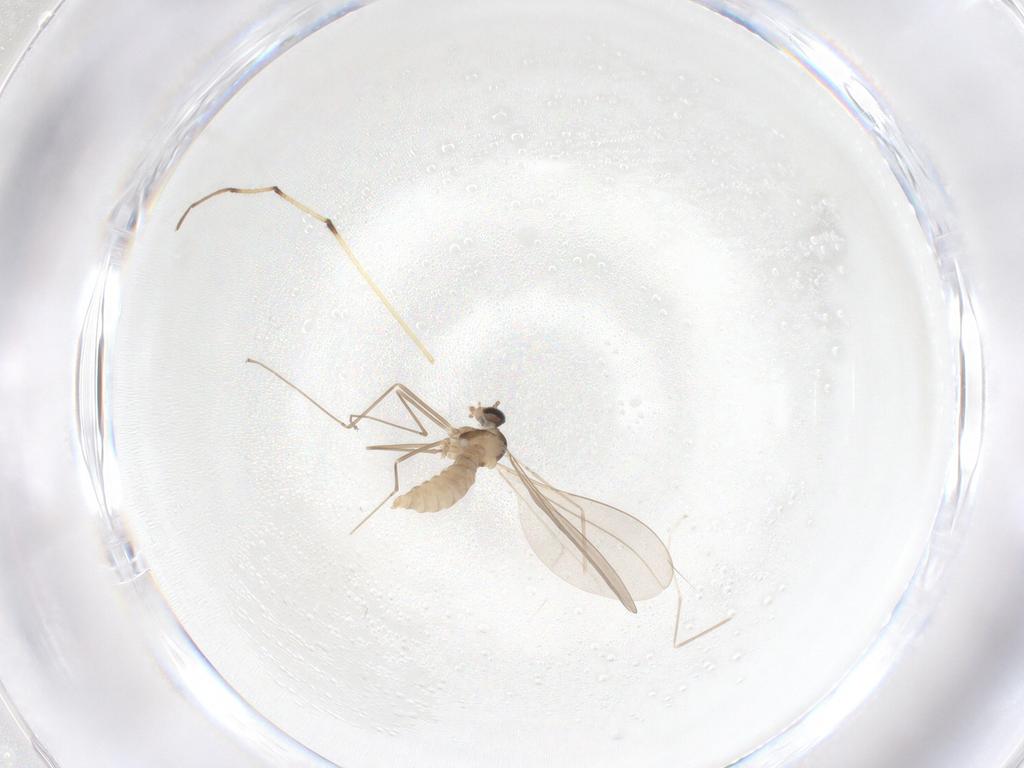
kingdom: Animalia
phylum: Arthropoda
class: Insecta
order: Diptera
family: Cecidomyiidae
